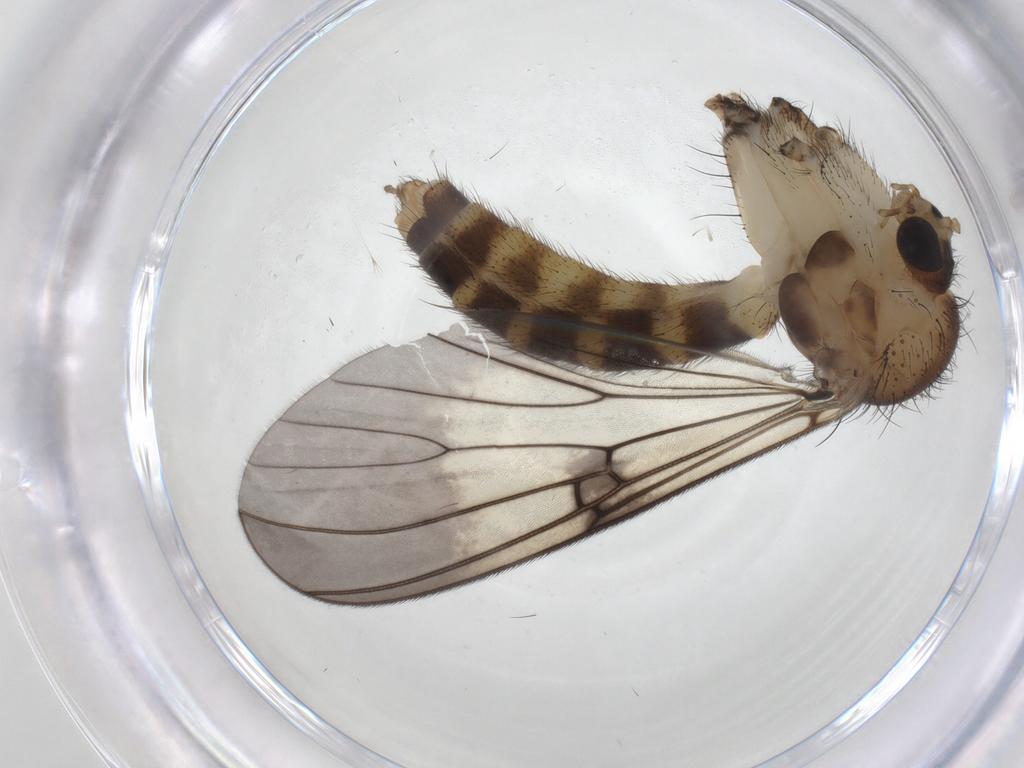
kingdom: Animalia
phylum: Arthropoda
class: Insecta
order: Diptera
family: Mycetophilidae
